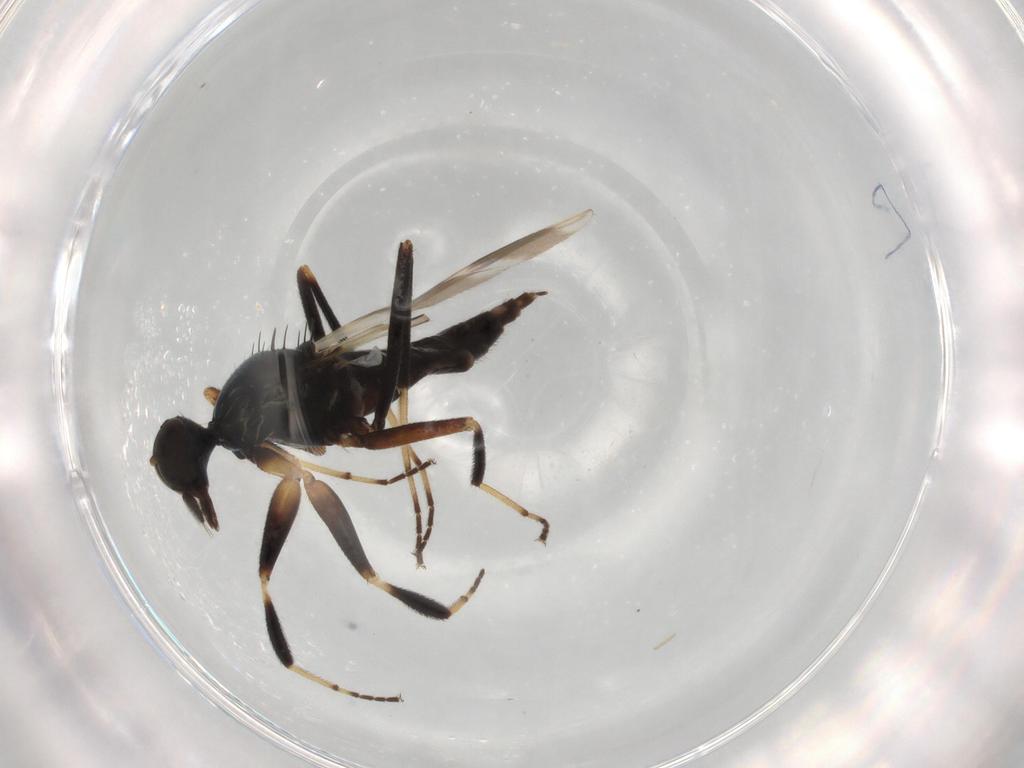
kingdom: Animalia
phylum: Arthropoda
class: Insecta
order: Diptera
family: Hybotidae
